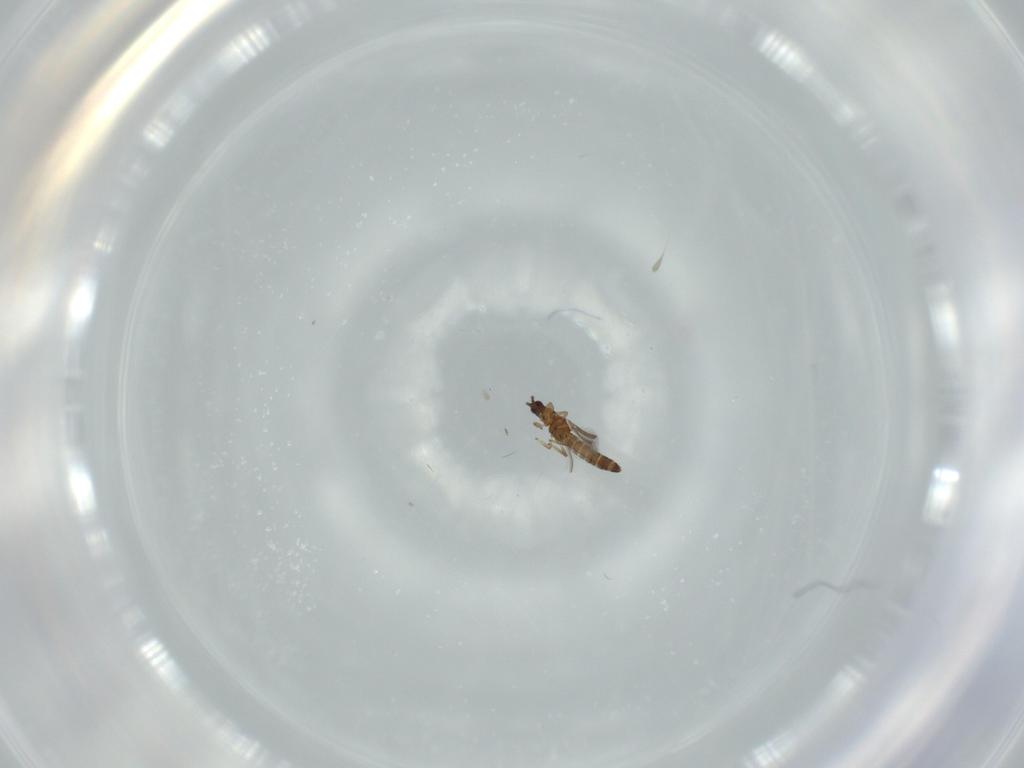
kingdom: Animalia
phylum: Arthropoda
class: Insecta
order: Thysanoptera
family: Thripidae
